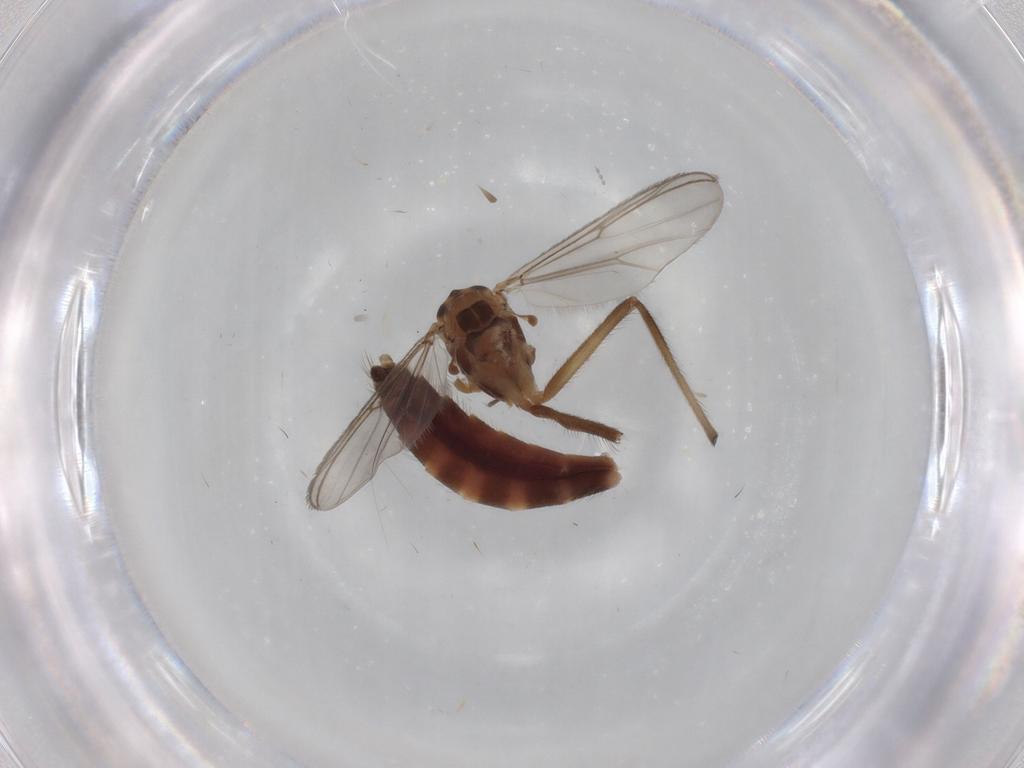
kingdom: Animalia
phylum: Arthropoda
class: Insecta
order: Diptera
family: Chironomidae
